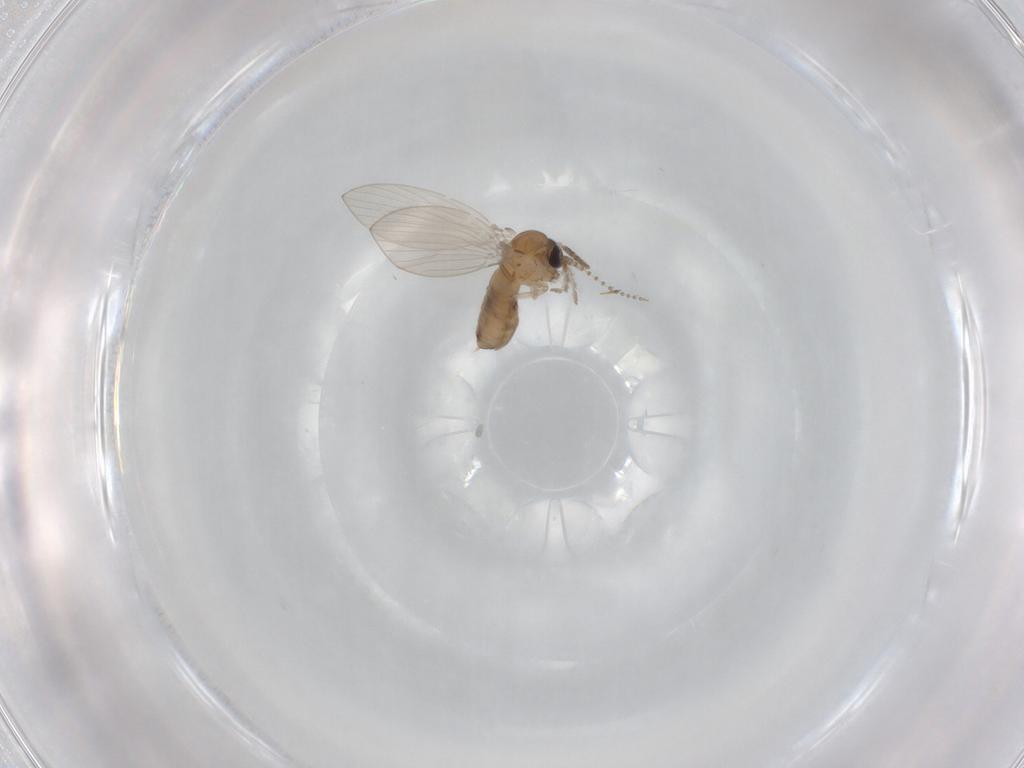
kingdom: Animalia
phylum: Arthropoda
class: Insecta
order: Diptera
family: Psychodidae
